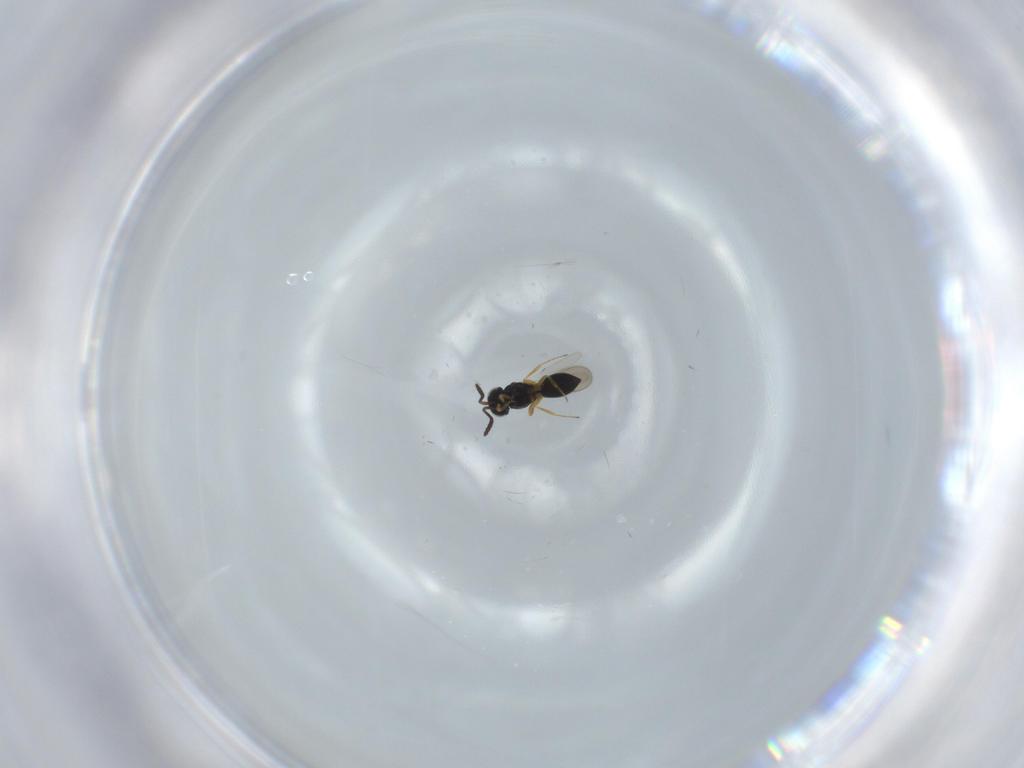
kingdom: Animalia
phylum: Arthropoda
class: Insecta
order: Hymenoptera
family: Scelionidae
